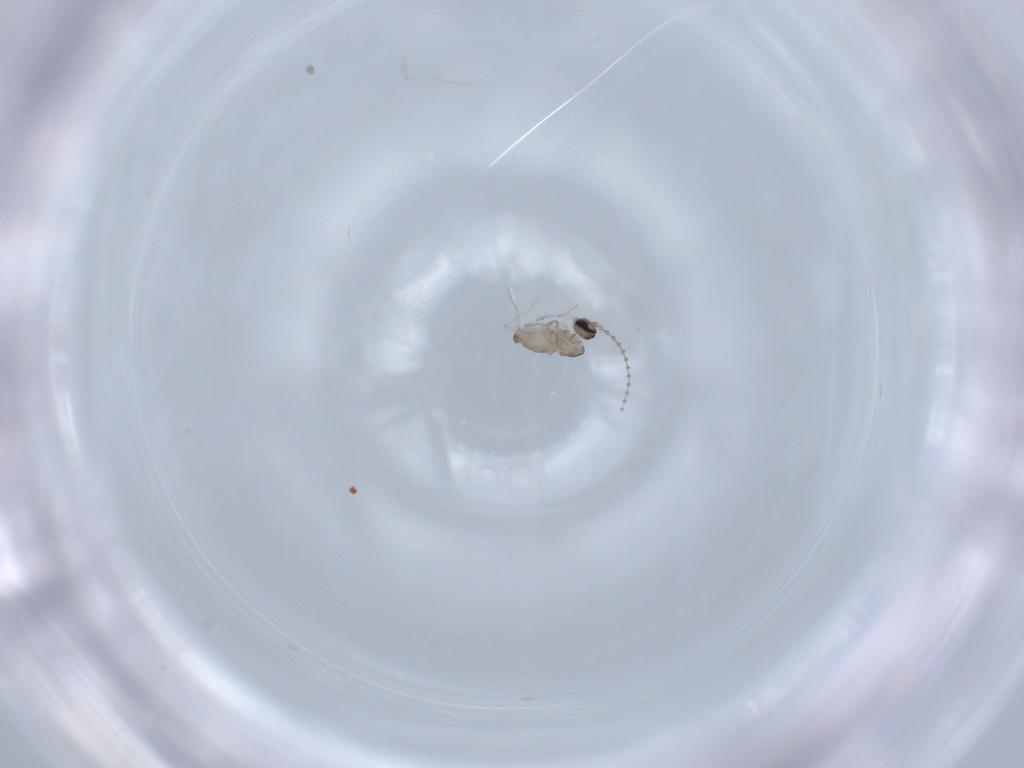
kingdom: Animalia
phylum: Arthropoda
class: Insecta
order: Diptera
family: Cecidomyiidae
